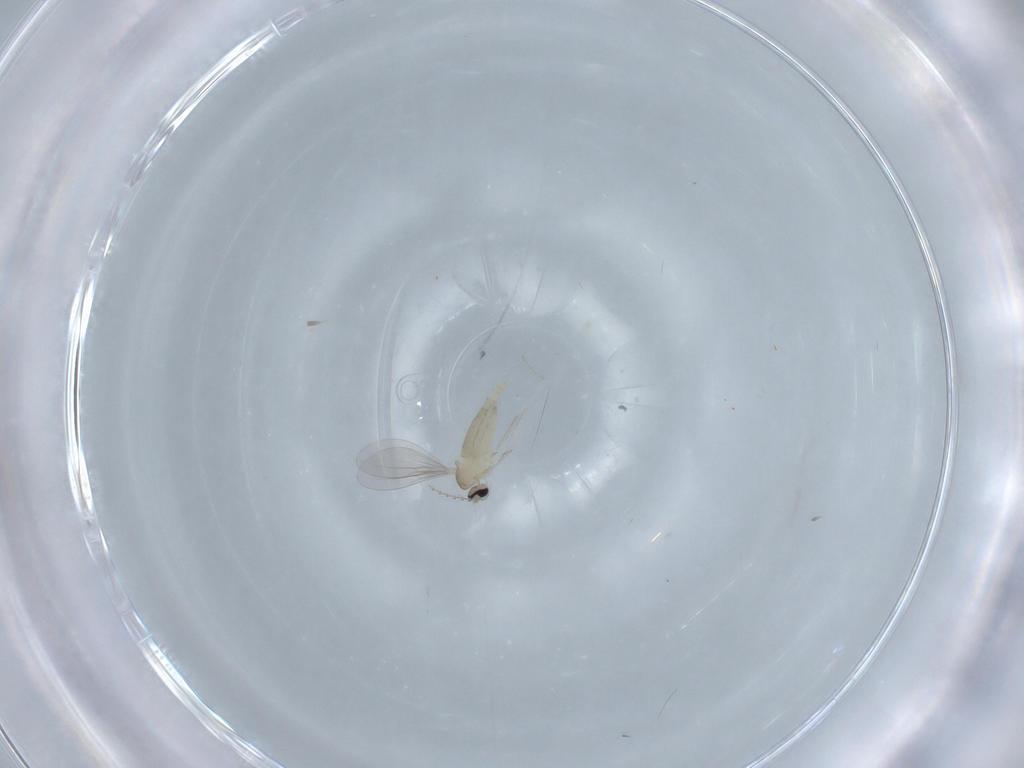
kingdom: Animalia
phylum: Arthropoda
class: Insecta
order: Diptera
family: Cecidomyiidae
